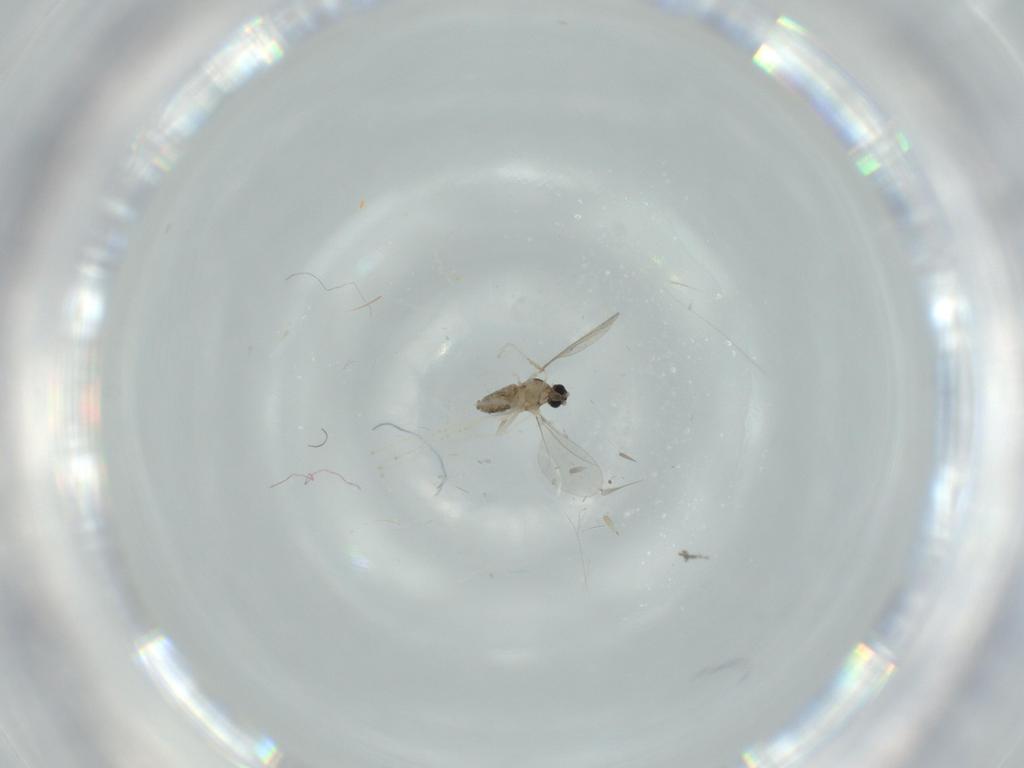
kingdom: Animalia
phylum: Arthropoda
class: Insecta
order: Diptera
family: Cecidomyiidae
